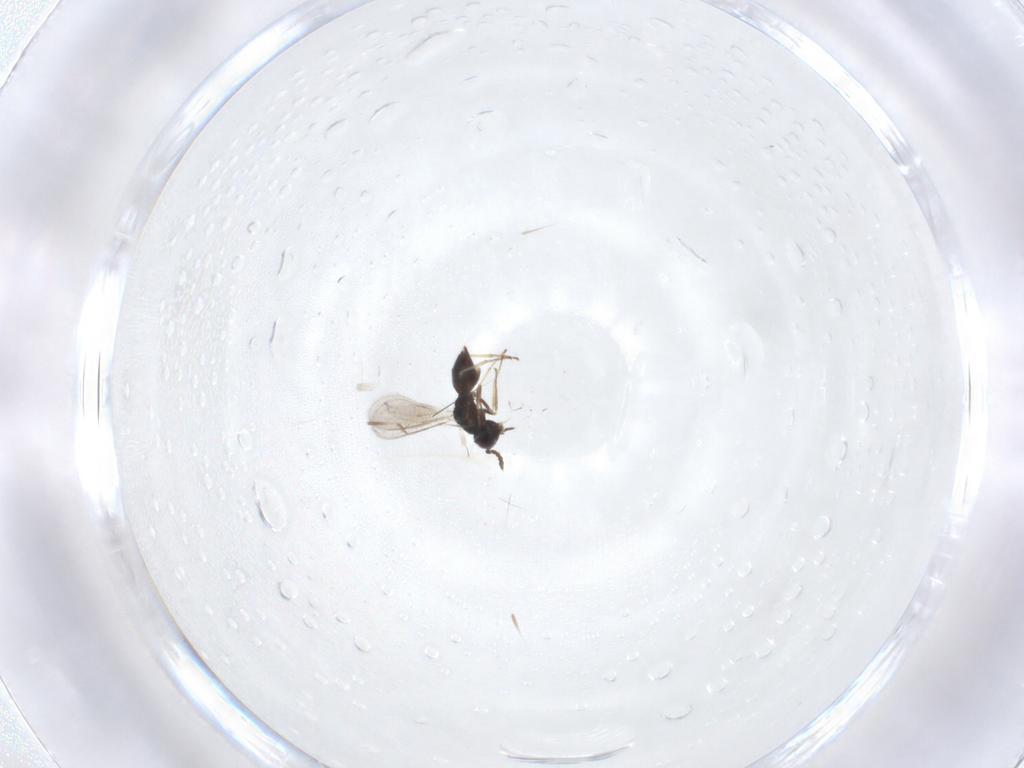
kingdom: Animalia
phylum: Arthropoda
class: Insecta
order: Hymenoptera
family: Eulophidae
